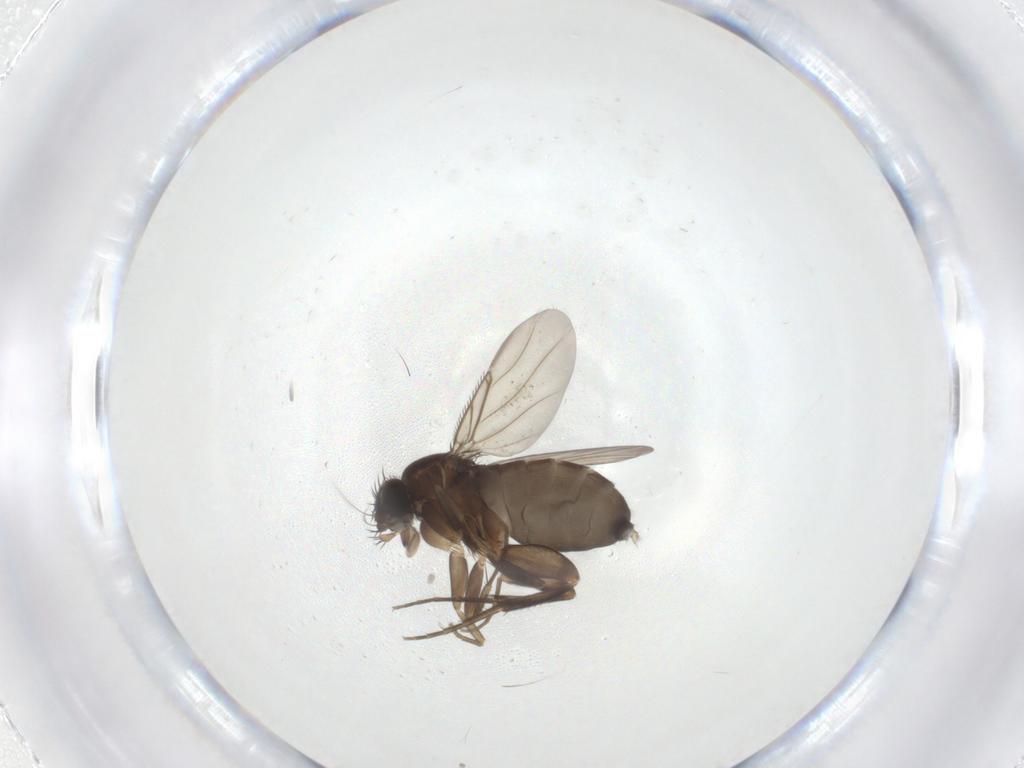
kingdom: Animalia
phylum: Arthropoda
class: Insecta
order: Diptera
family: Phoridae
